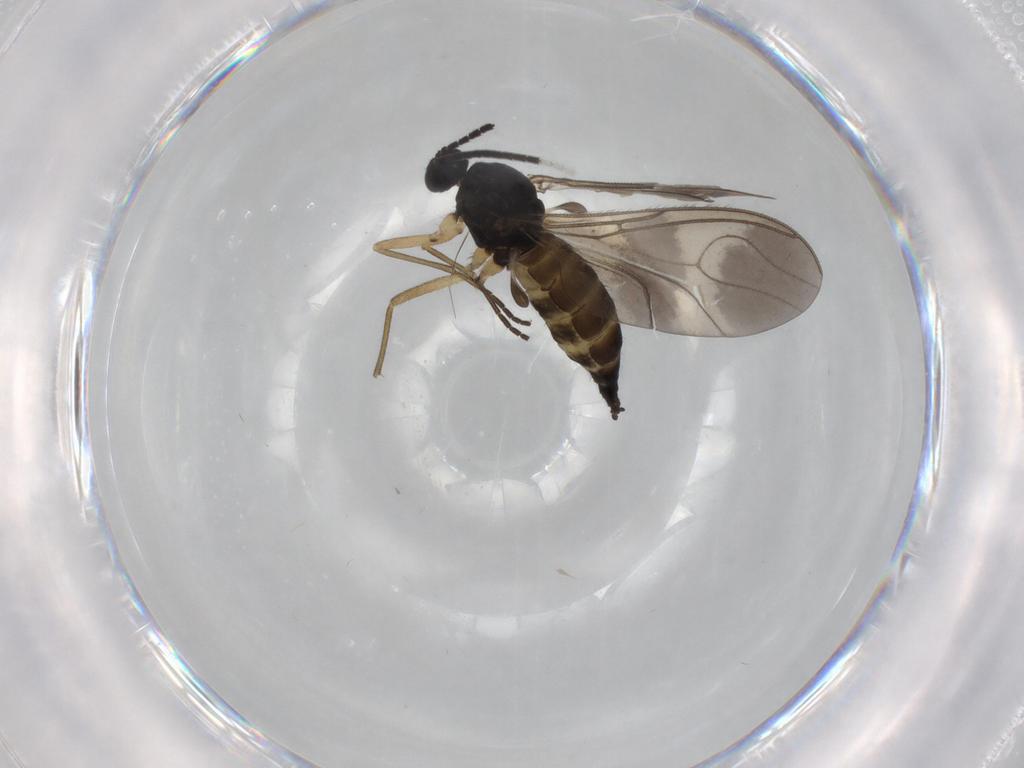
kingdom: Animalia
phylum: Arthropoda
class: Insecta
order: Diptera
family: Sciaridae
